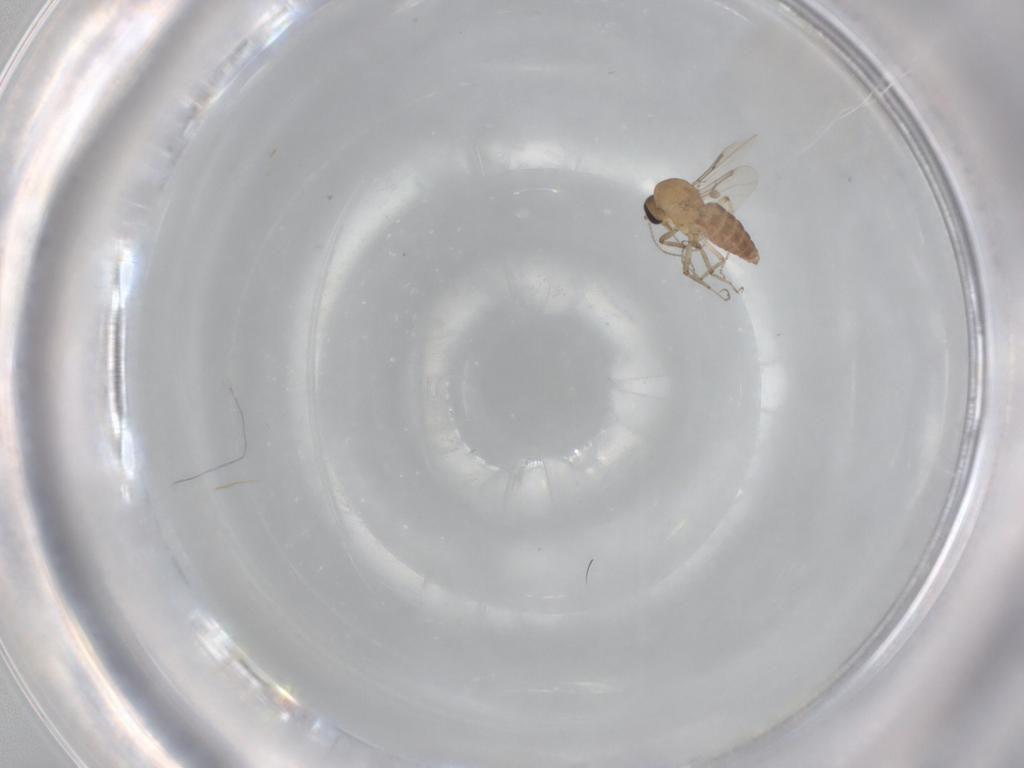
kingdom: Animalia
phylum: Arthropoda
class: Insecta
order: Diptera
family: Ceratopogonidae
